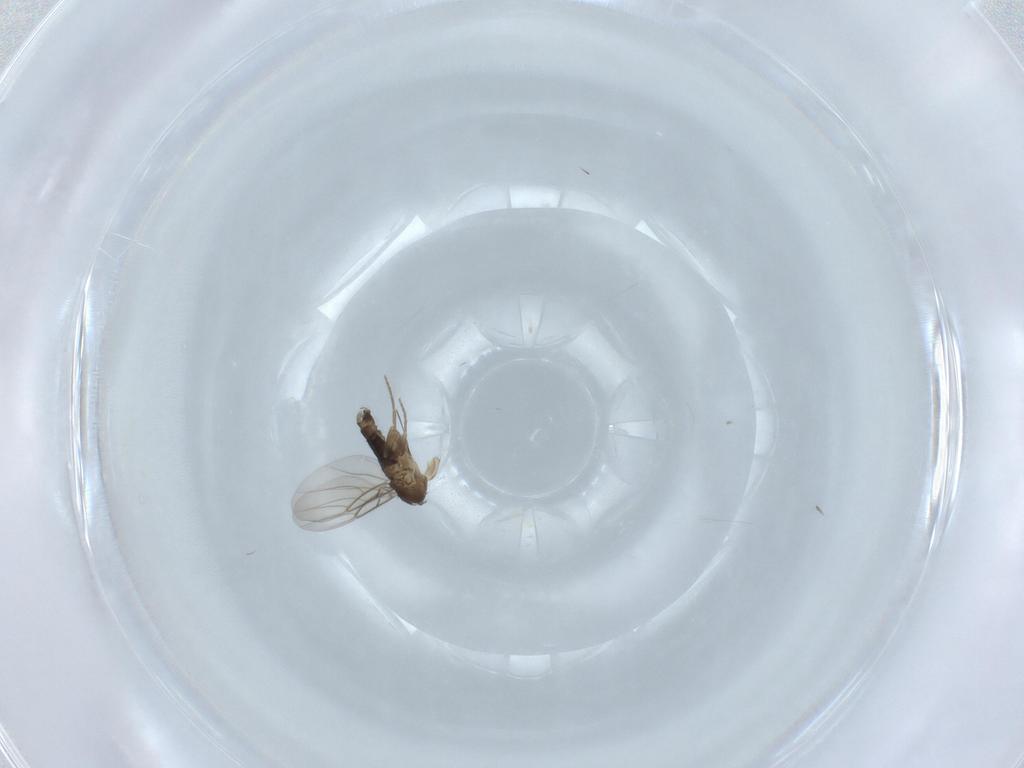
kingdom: Animalia
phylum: Arthropoda
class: Insecta
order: Diptera
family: Phoridae
